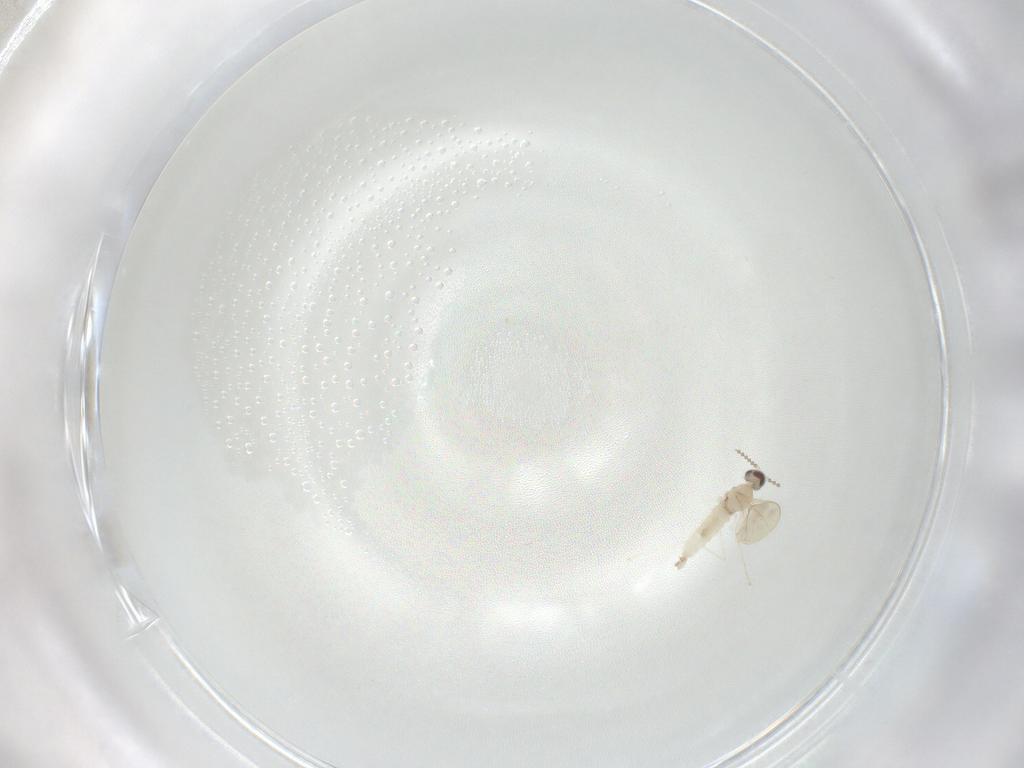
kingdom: Animalia
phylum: Arthropoda
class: Insecta
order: Diptera
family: Cecidomyiidae
